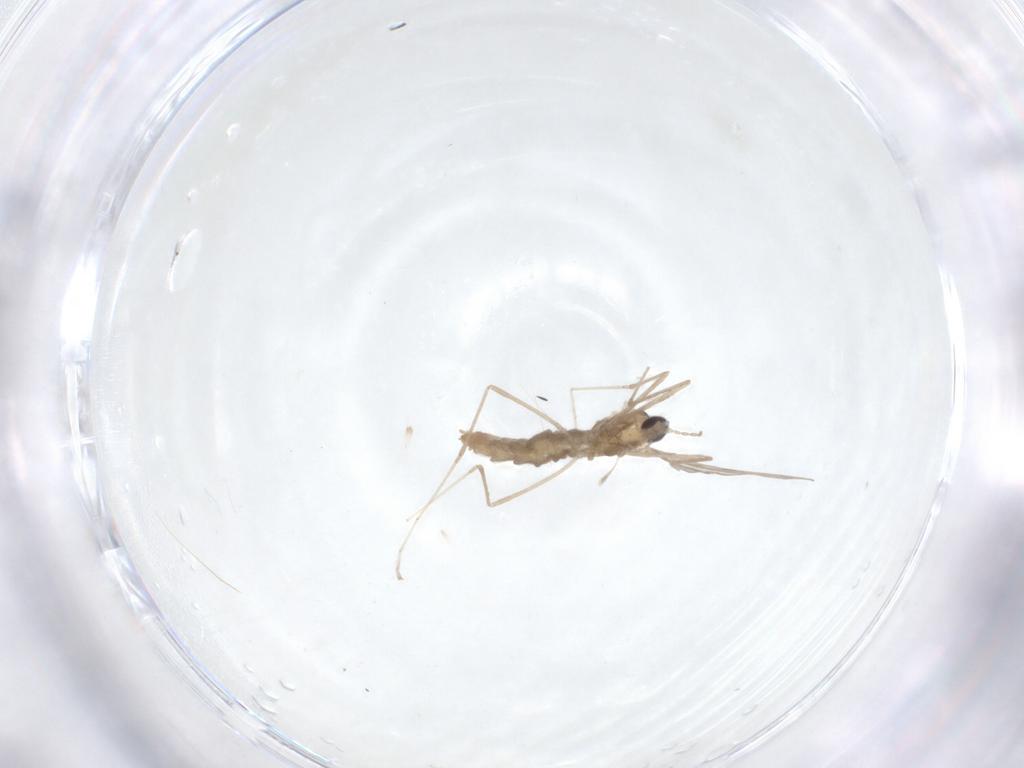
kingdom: Animalia
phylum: Arthropoda
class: Insecta
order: Diptera
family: Cecidomyiidae
